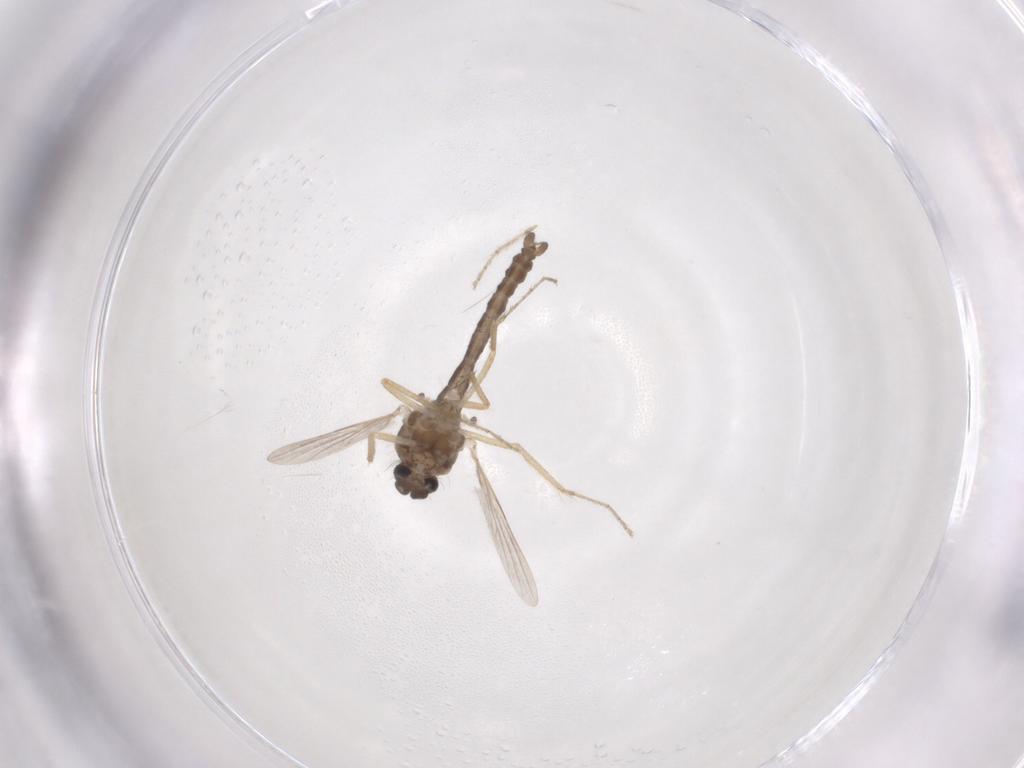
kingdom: Animalia
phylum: Arthropoda
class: Insecta
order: Diptera
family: Ceratopogonidae
